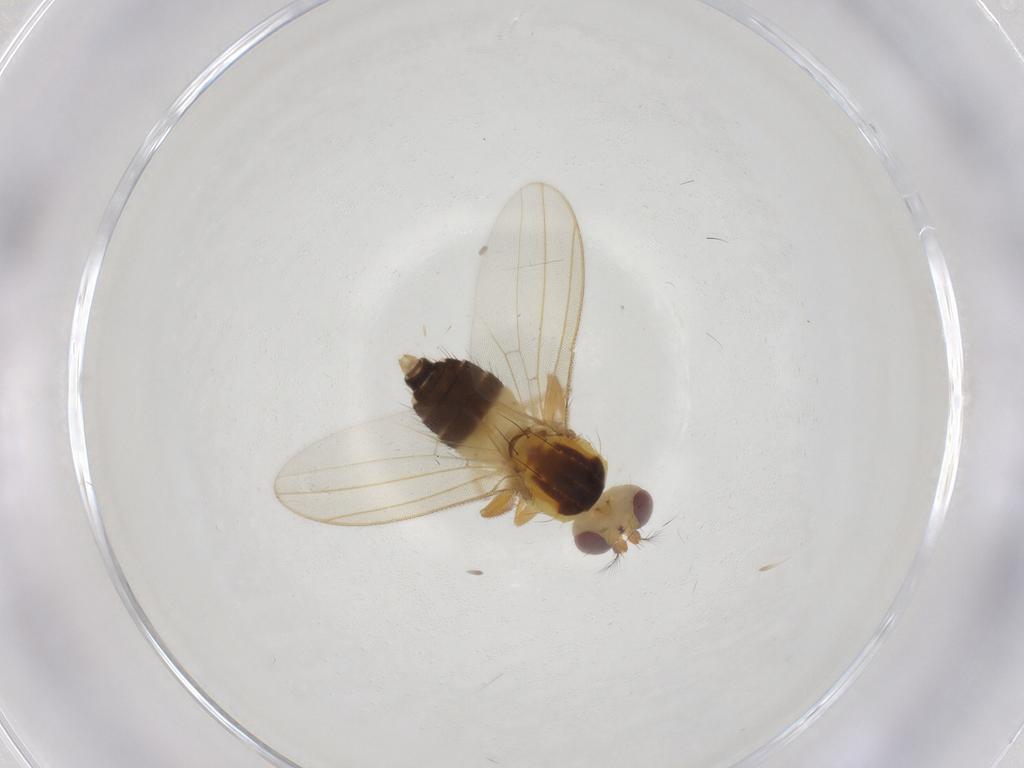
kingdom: Animalia
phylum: Arthropoda
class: Insecta
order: Diptera
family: Periscelididae
